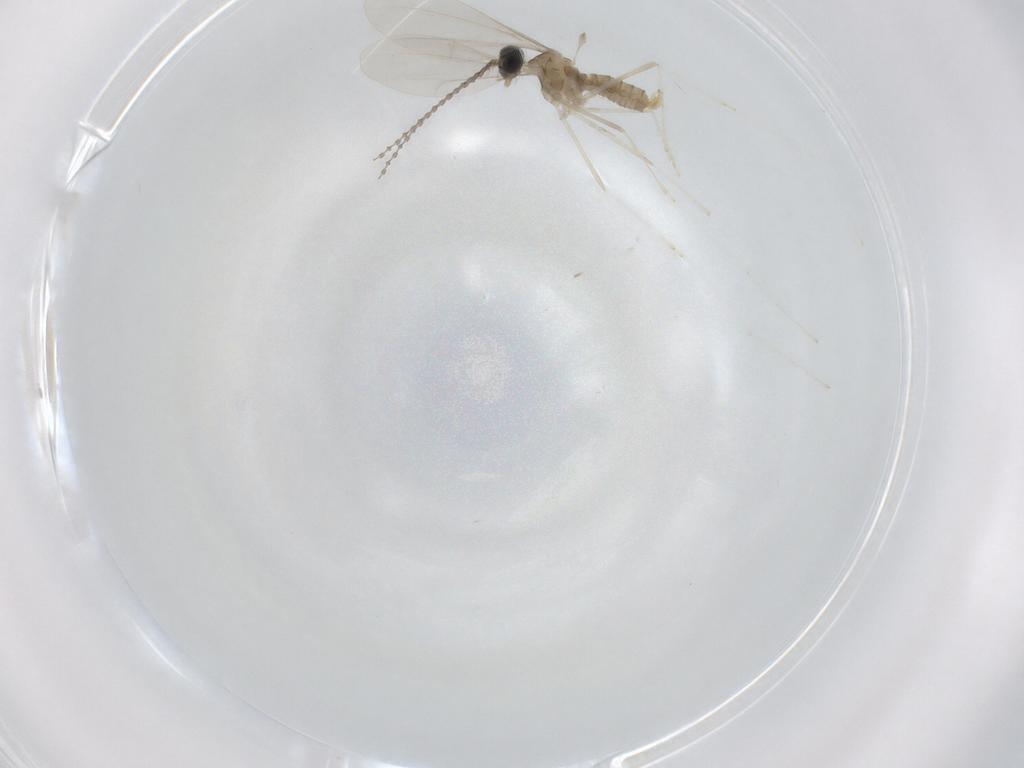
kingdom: Animalia
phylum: Arthropoda
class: Insecta
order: Diptera
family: Cecidomyiidae
